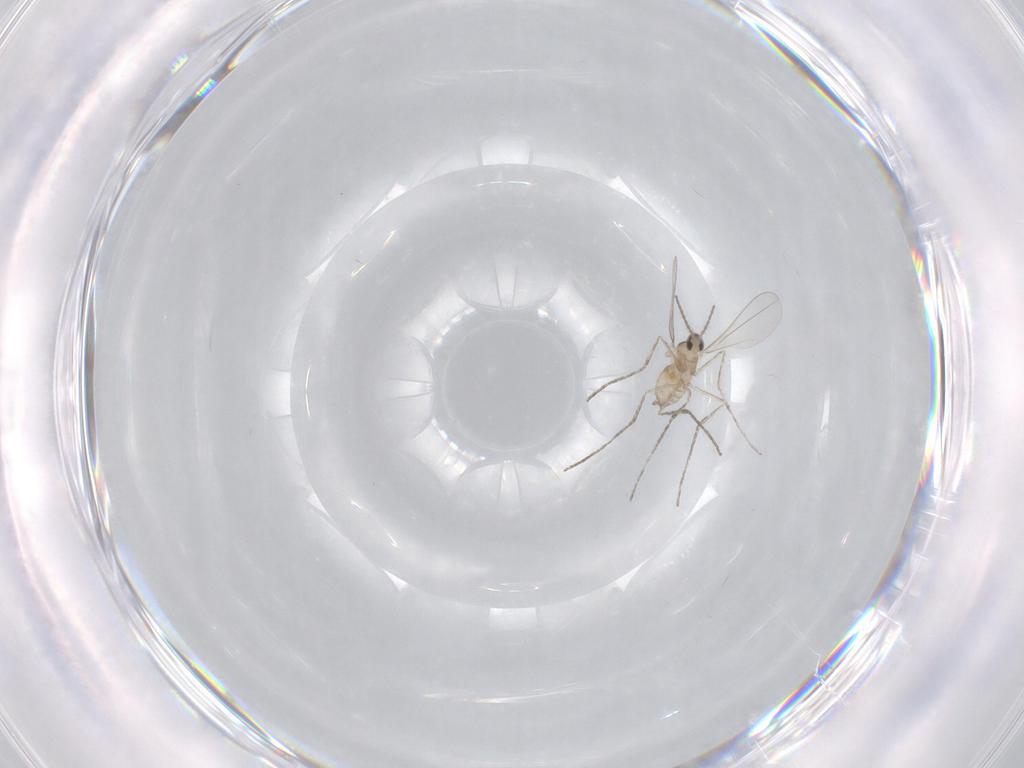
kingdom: Animalia
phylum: Arthropoda
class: Insecta
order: Diptera
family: Cecidomyiidae
